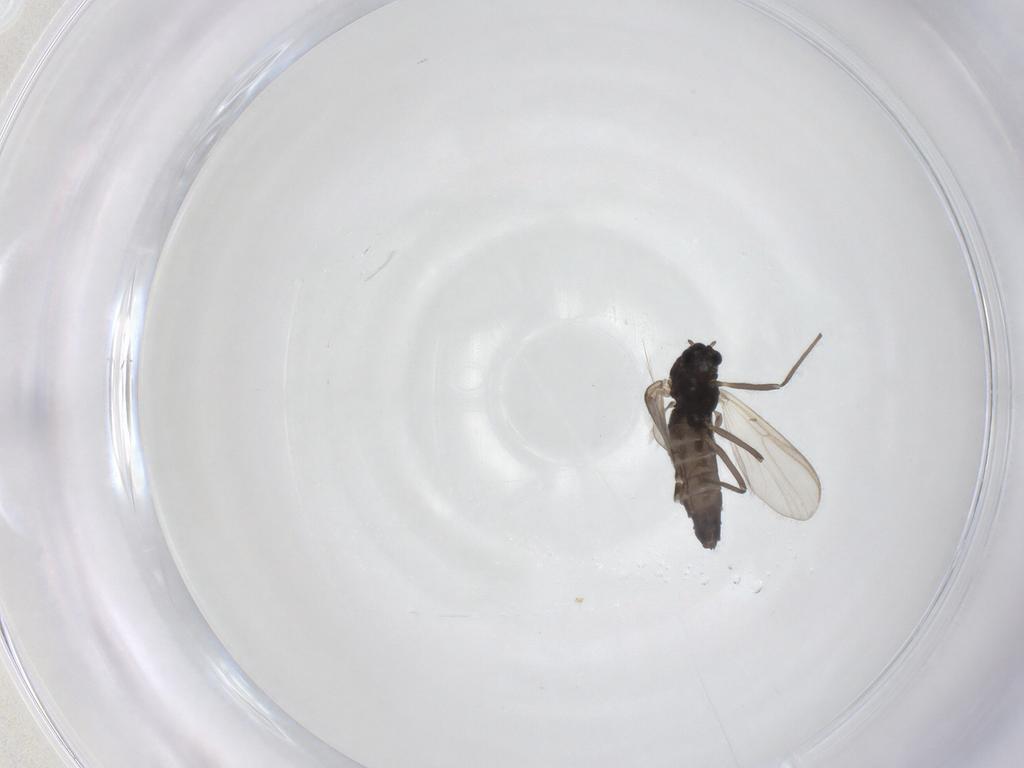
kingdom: Animalia
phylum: Arthropoda
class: Insecta
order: Diptera
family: Chironomidae
